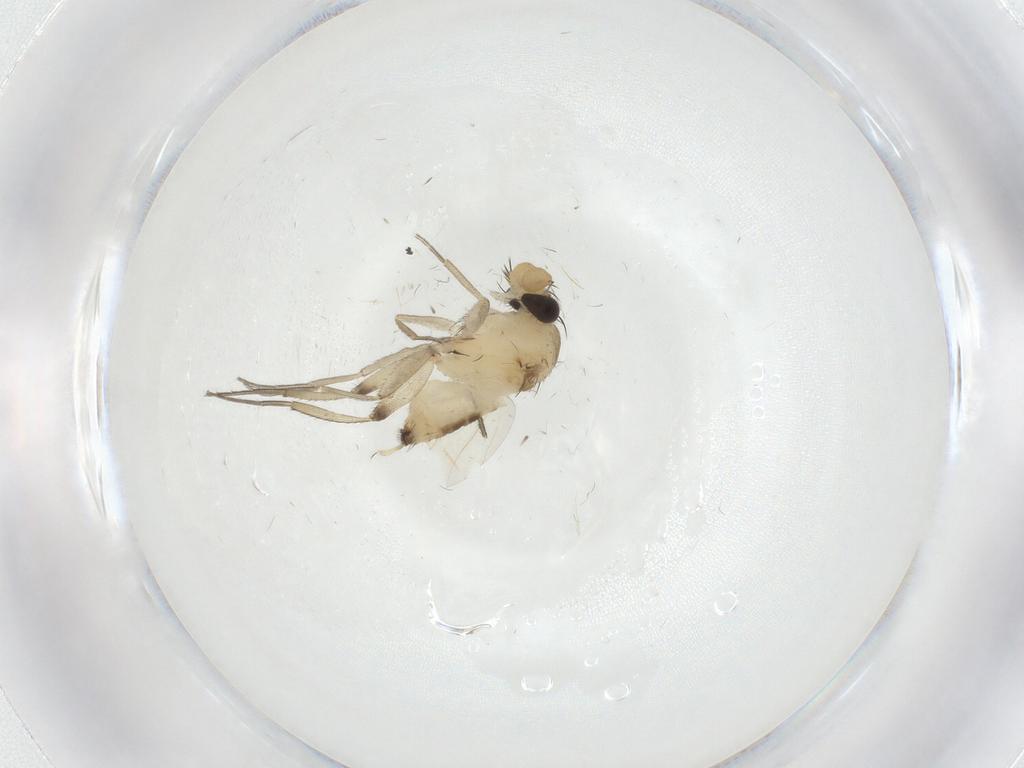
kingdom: Animalia
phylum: Arthropoda
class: Insecta
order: Diptera
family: Phoridae
